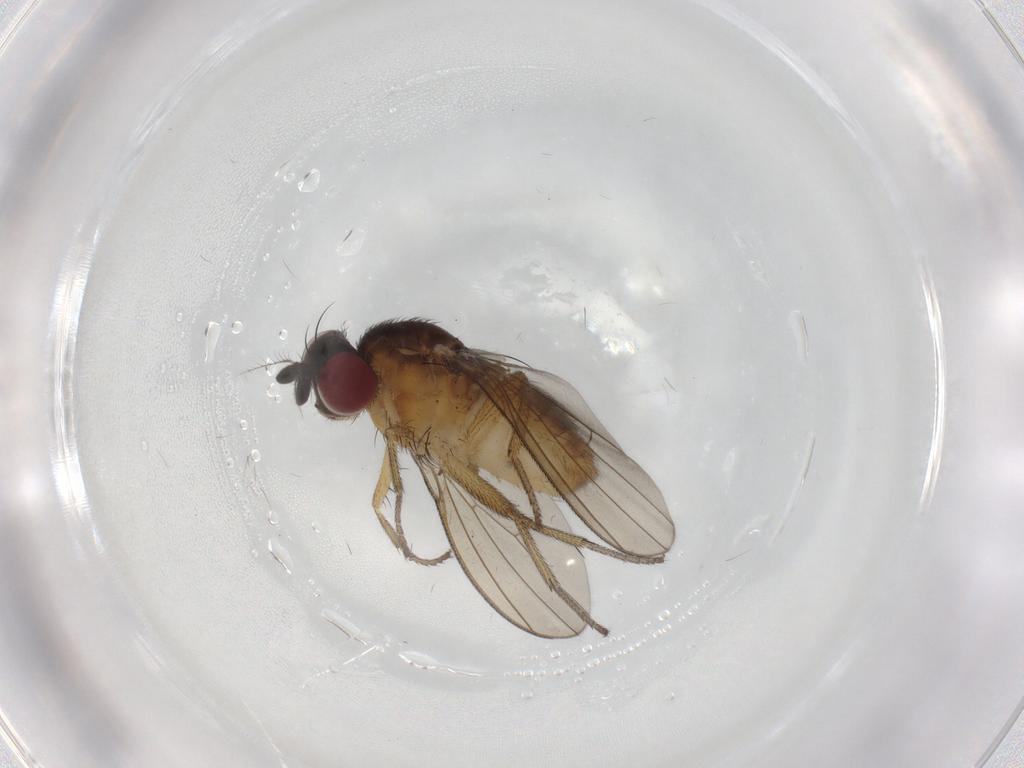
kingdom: Animalia
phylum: Arthropoda
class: Insecta
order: Diptera
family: Lauxaniidae
